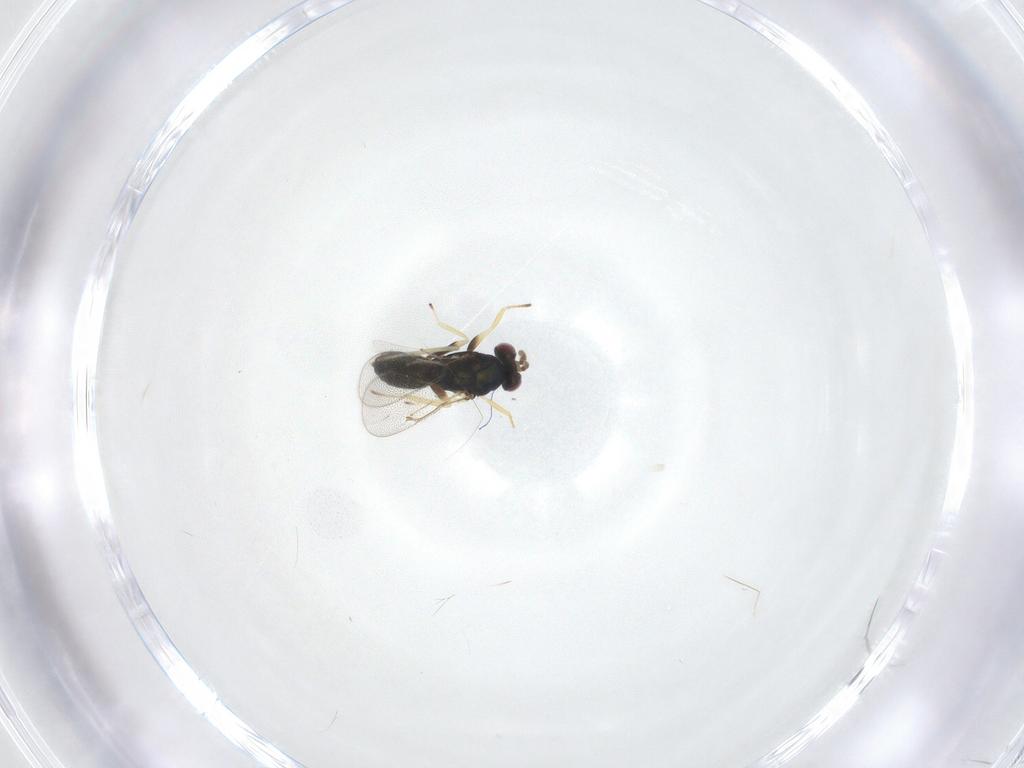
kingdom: Animalia
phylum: Arthropoda
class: Insecta
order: Hymenoptera
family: Eulophidae
